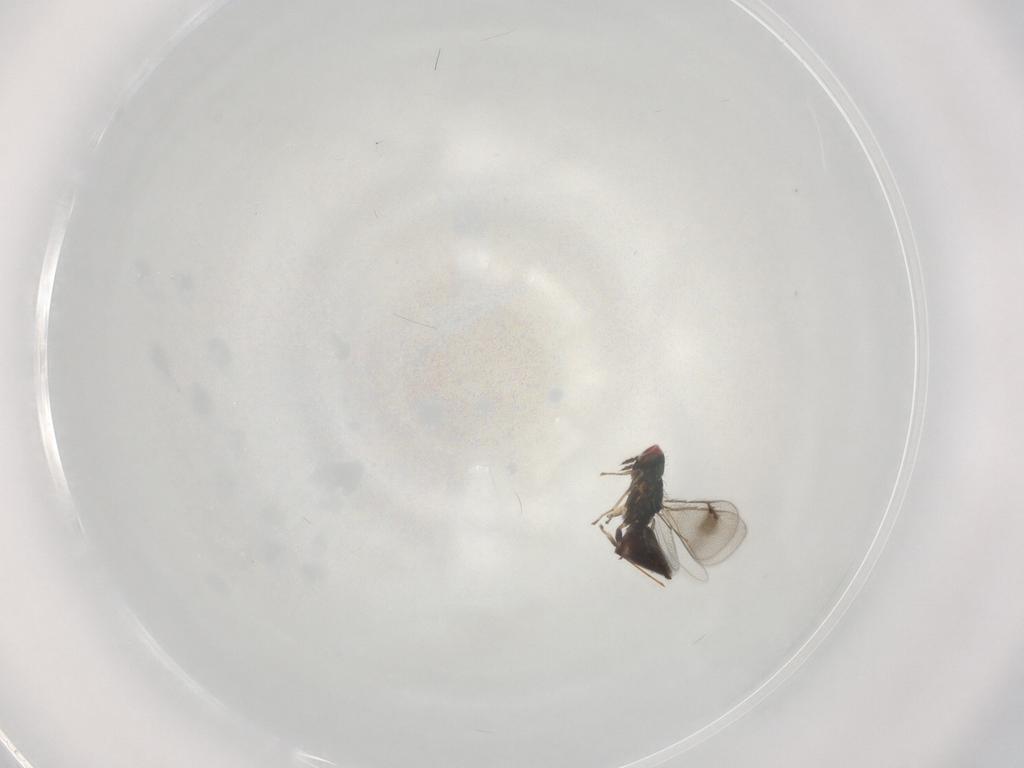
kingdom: Animalia
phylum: Arthropoda
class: Insecta
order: Hymenoptera
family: Eulophidae
